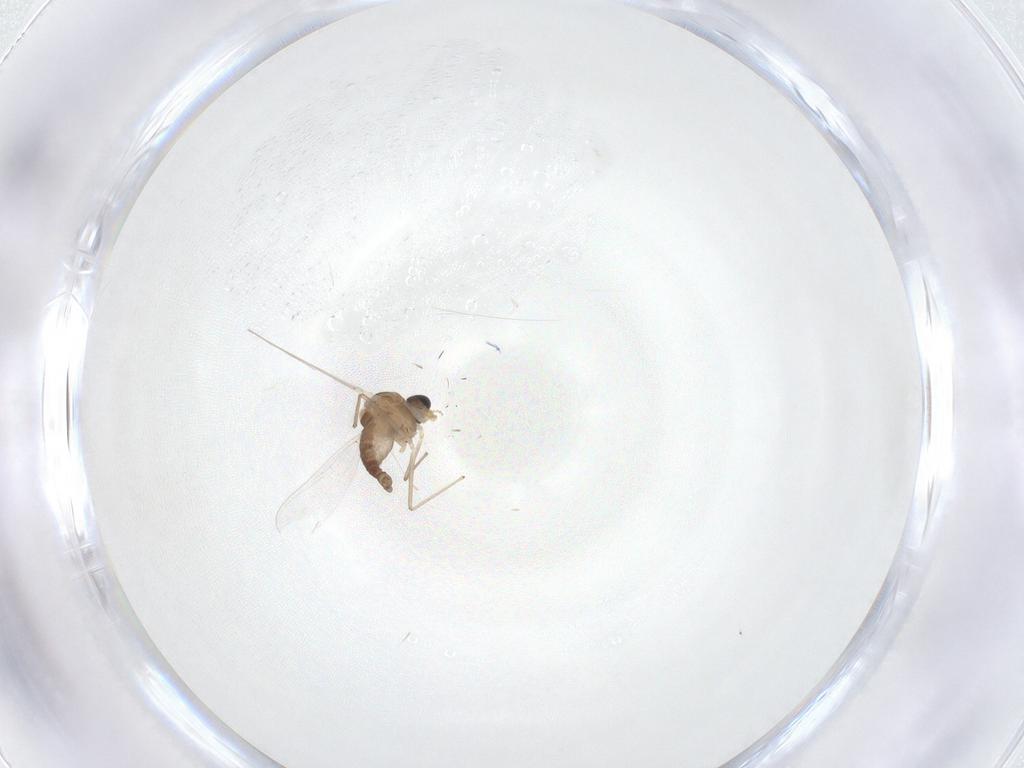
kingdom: Animalia
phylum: Arthropoda
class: Insecta
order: Diptera
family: Chironomidae
